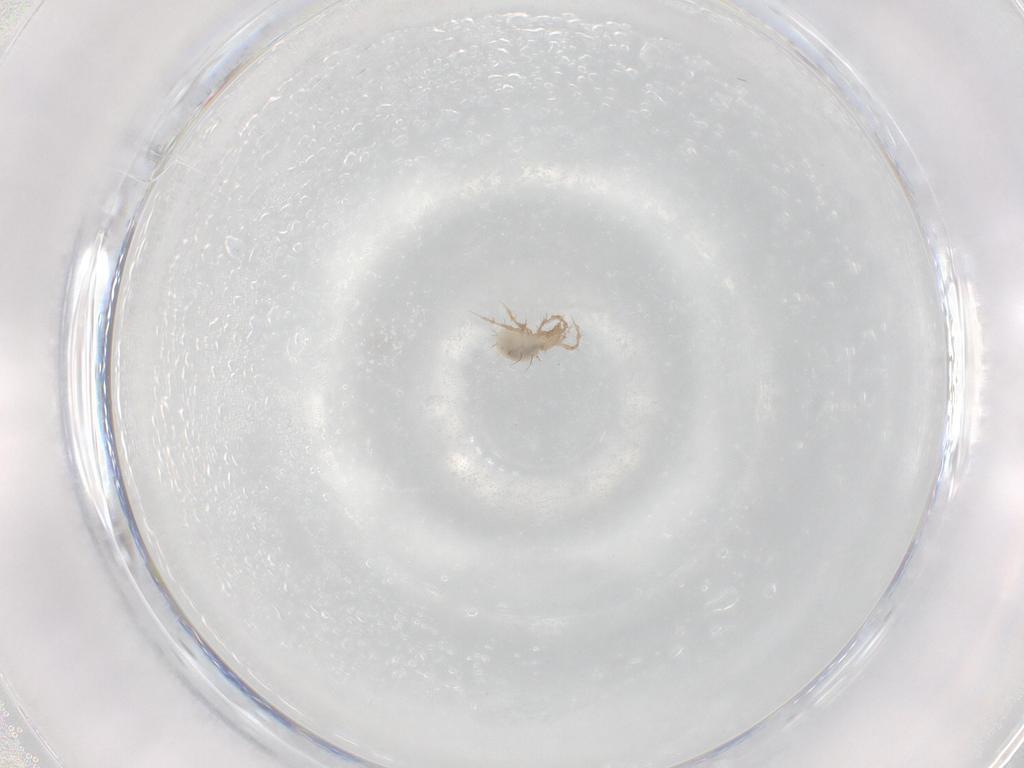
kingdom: Animalia
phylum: Arthropoda
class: Arachnida
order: Sarcoptiformes
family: Damaeidae
